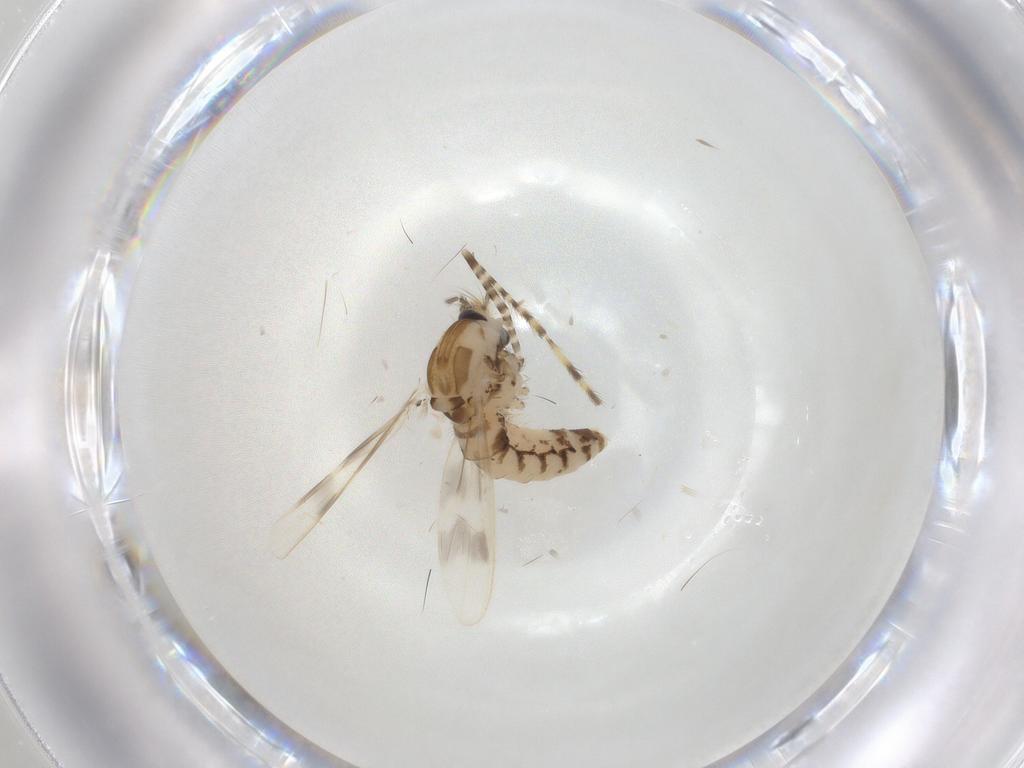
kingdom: Animalia
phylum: Arthropoda
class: Insecta
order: Diptera
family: Chaoboridae
